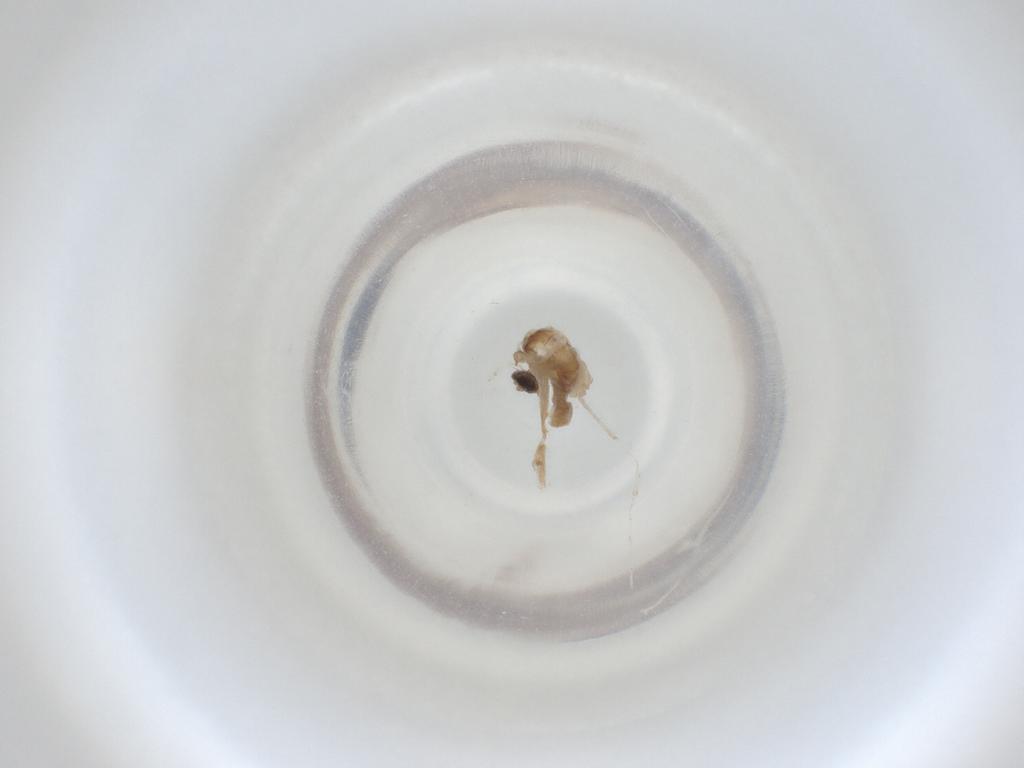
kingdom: Animalia
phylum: Arthropoda
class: Insecta
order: Diptera
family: Cecidomyiidae
